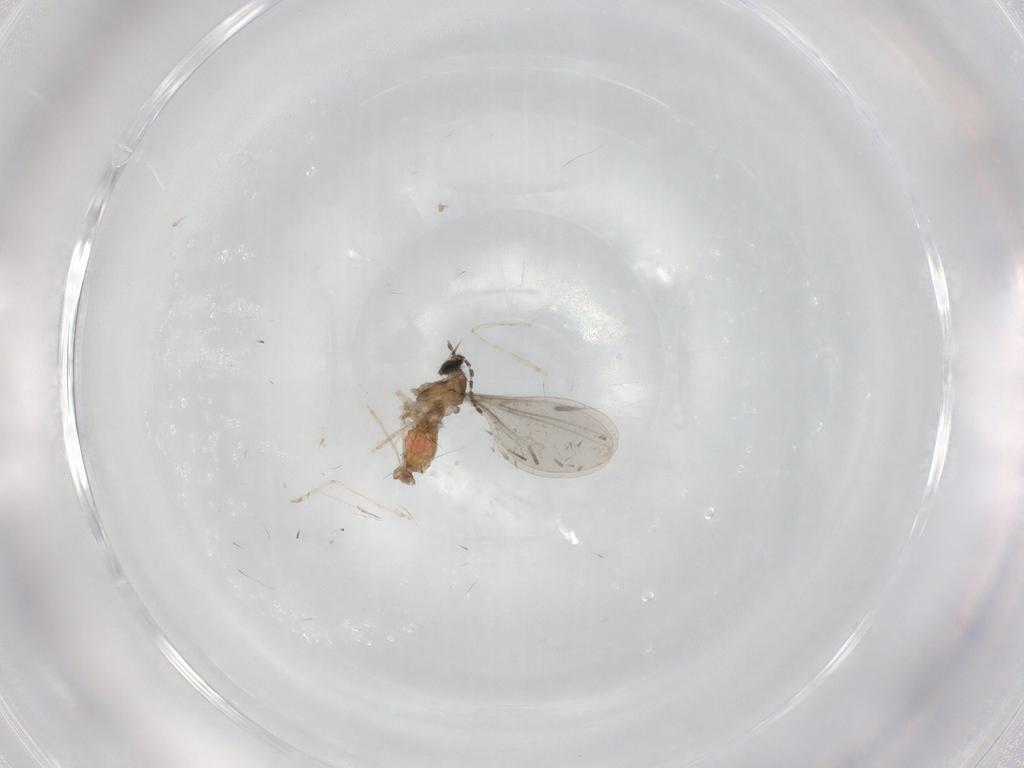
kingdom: Animalia
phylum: Arthropoda
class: Insecta
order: Diptera
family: Cecidomyiidae
